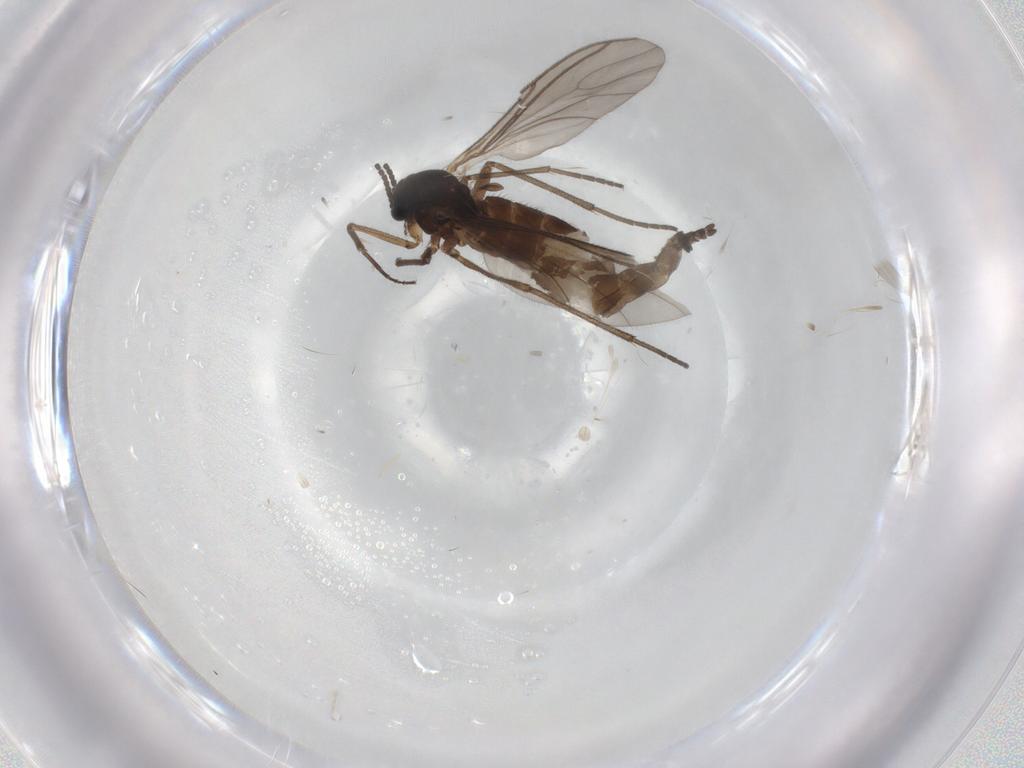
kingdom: Animalia
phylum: Arthropoda
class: Insecta
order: Diptera
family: Sciaridae
